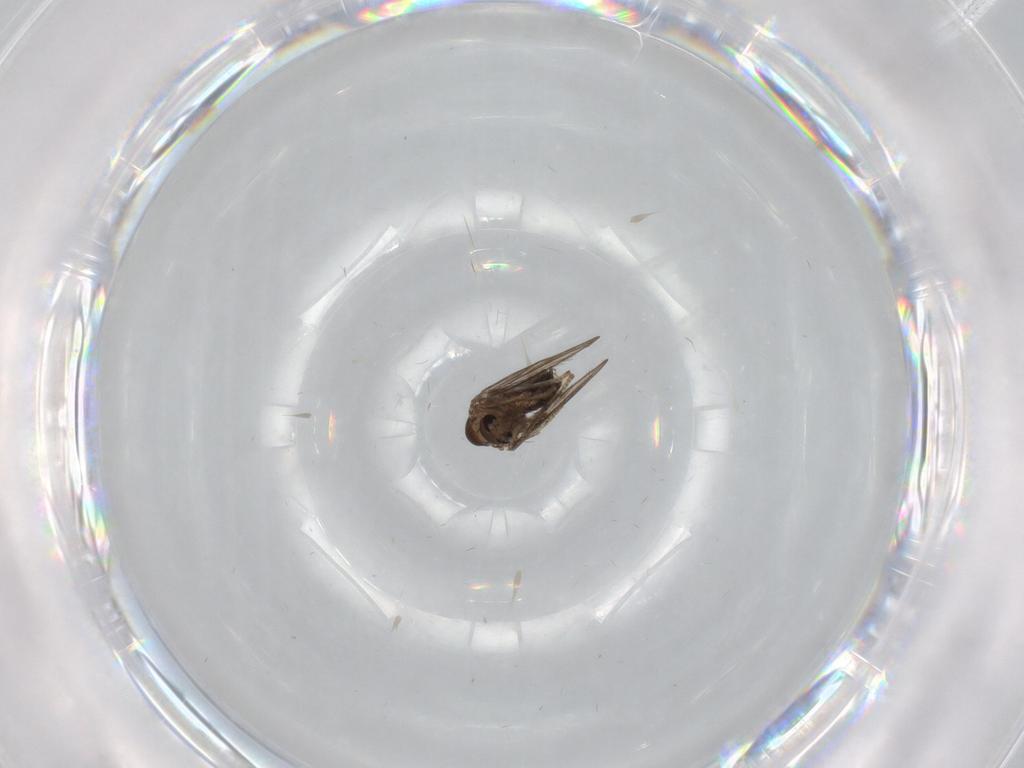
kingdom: Animalia
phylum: Arthropoda
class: Insecta
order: Diptera
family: Psychodidae
